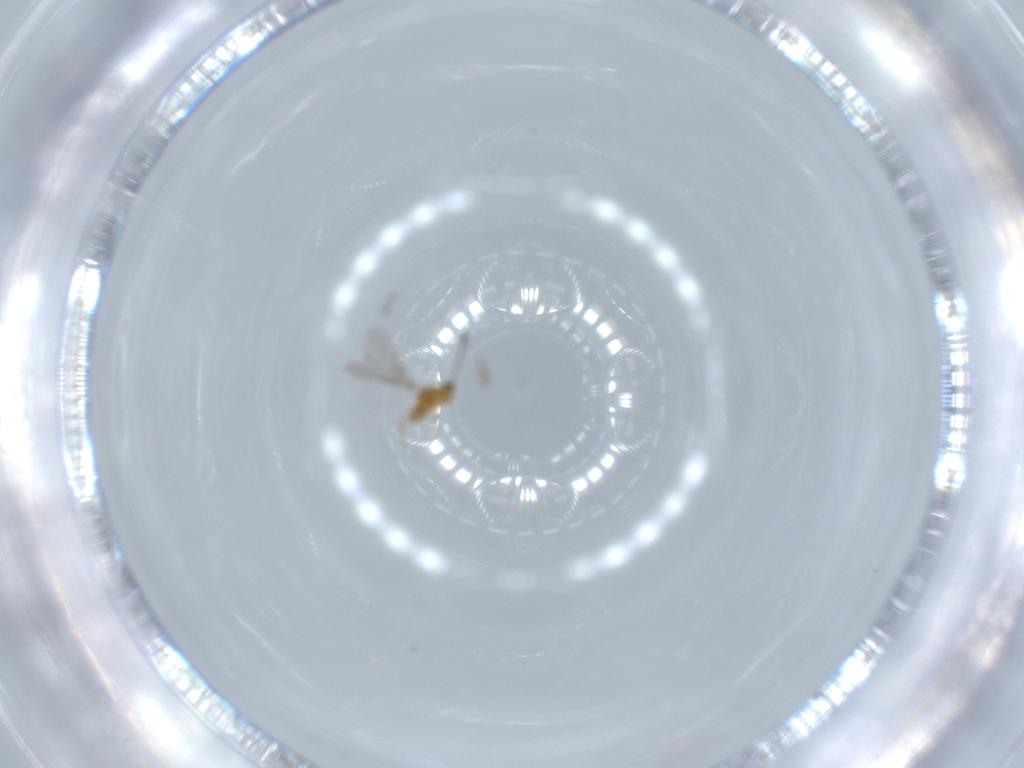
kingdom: Animalia
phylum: Arthropoda
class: Insecta
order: Hymenoptera
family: Mymaridae
